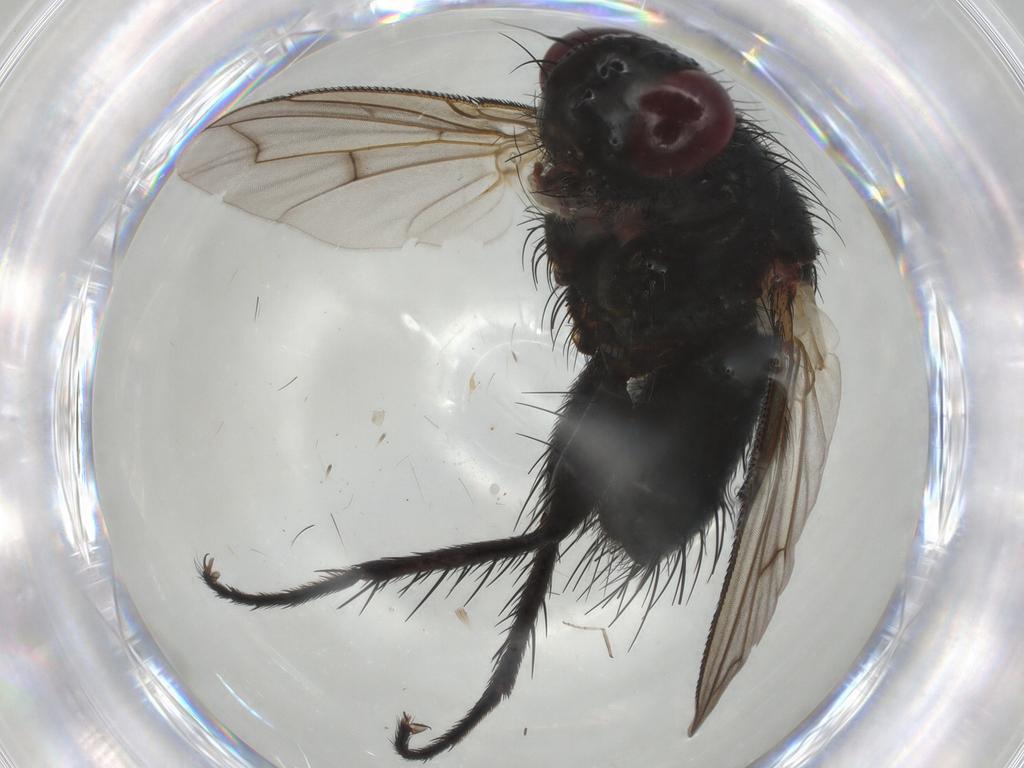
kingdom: Animalia
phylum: Arthropoda
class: Insecta
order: Diptera
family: Tachinidae
